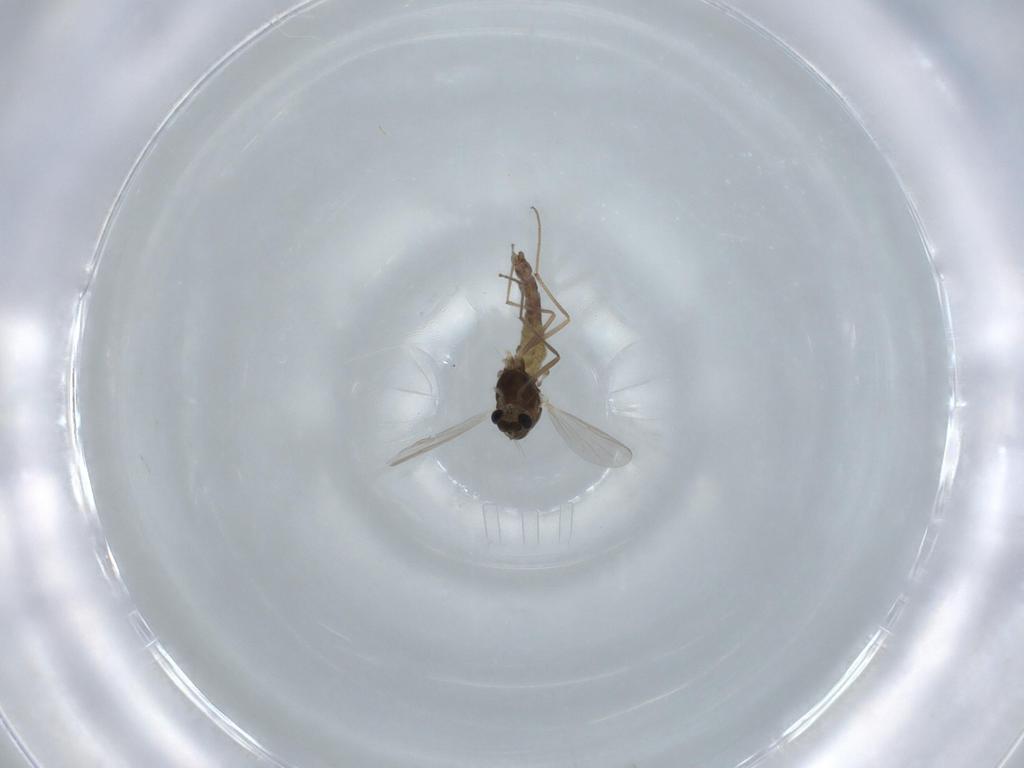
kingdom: Animalia
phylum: Arthropoda
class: Insecta
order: Diptera
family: Chironomidae
